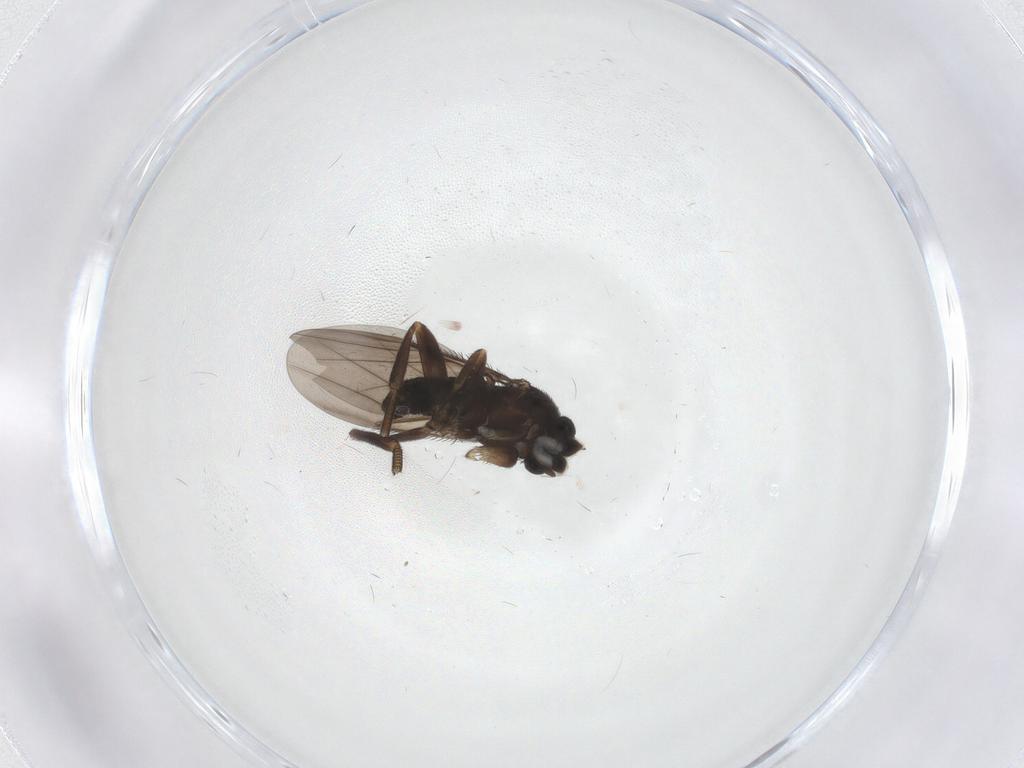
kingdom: Animalia
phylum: Arthropoda
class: Insecta
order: Diptera
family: Phoridae
